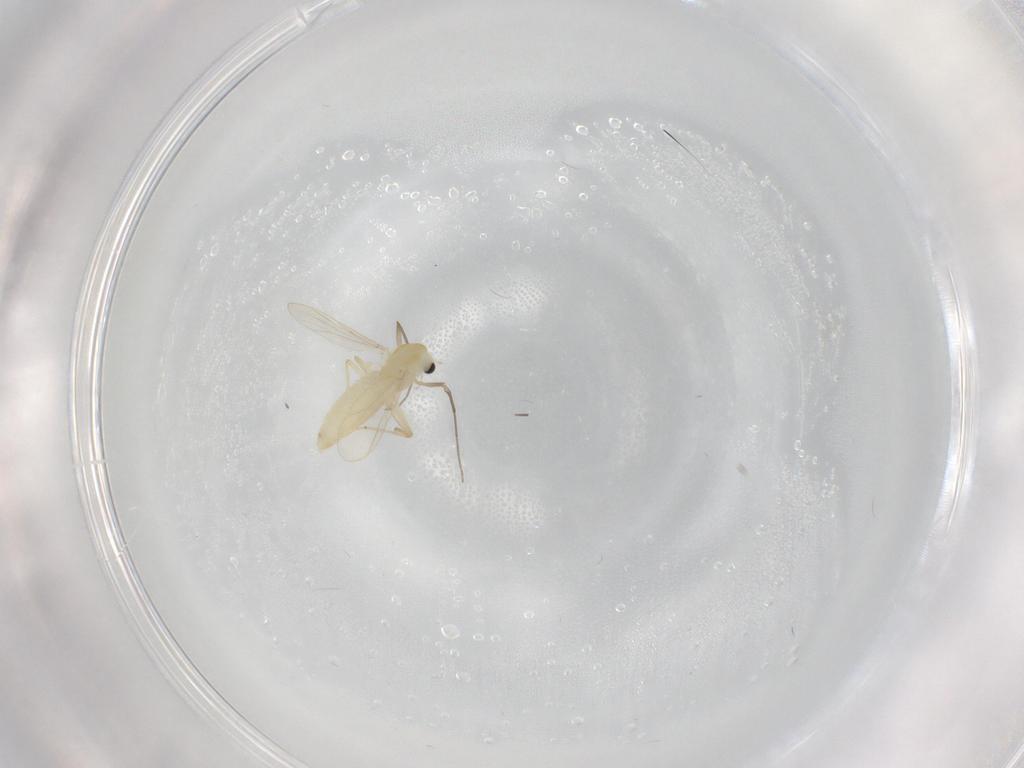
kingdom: Animalia
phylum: Arthropoda
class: Insecta
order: Diptera
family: Chironomidae
